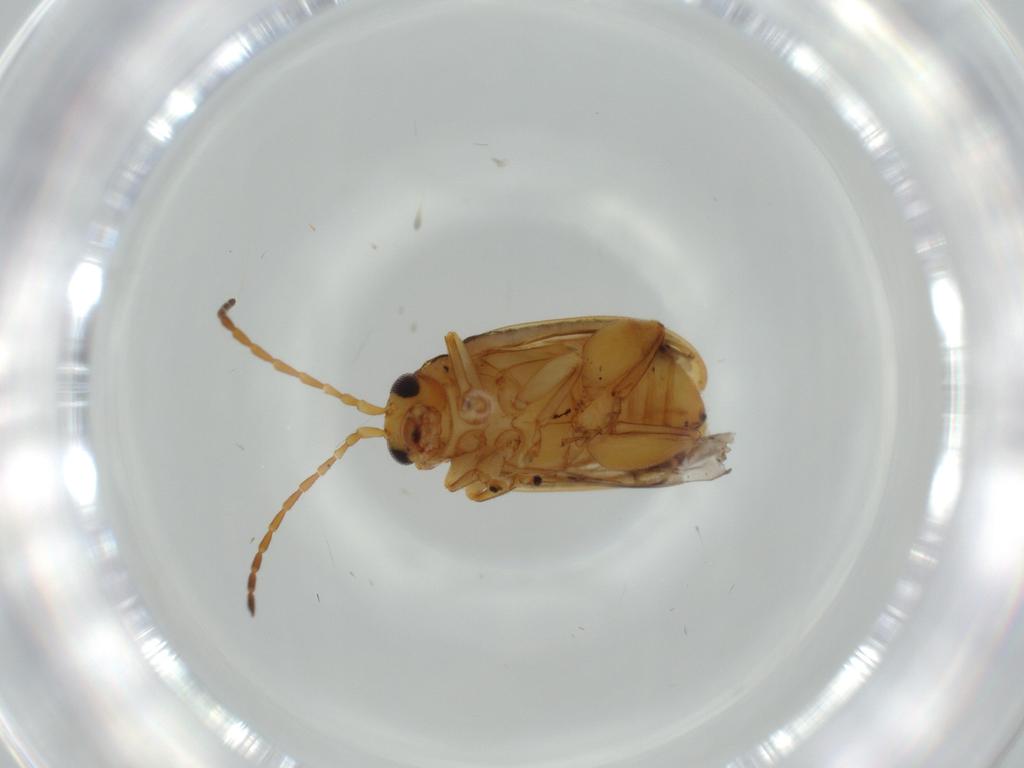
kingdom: Animalia
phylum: Arthropoda
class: Insecta
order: Coleoptera
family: Chrysomelidae
